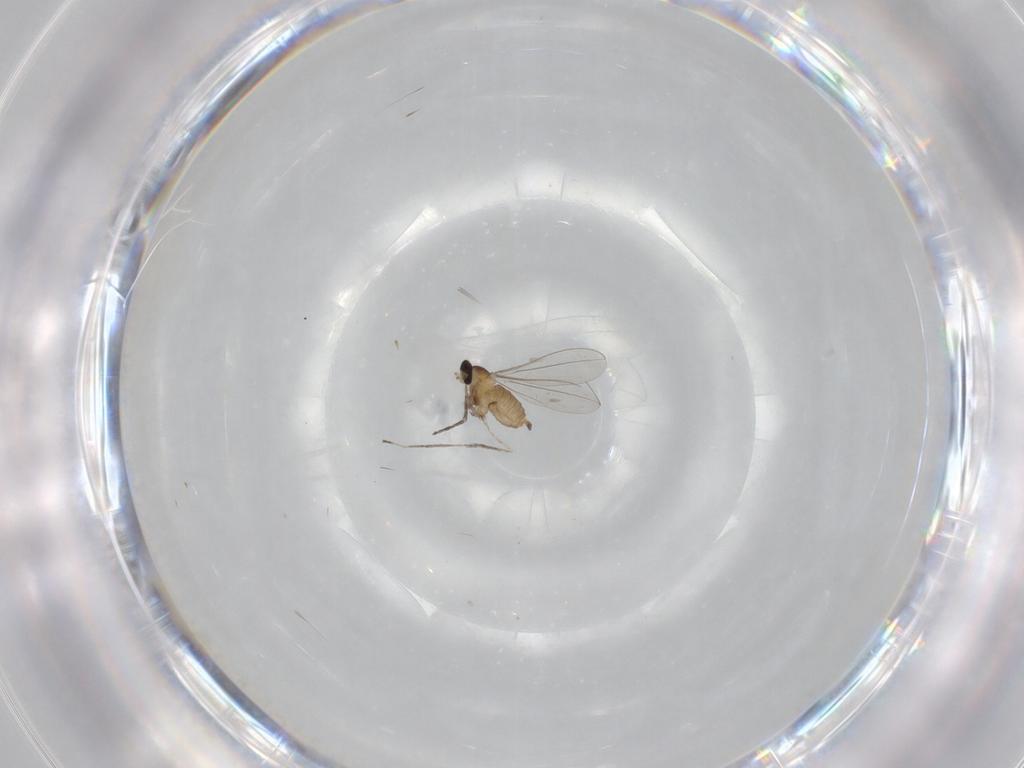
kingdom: Animalia
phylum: Arthropoda
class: Insecta
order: Diptera
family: Cecidomyiidae
